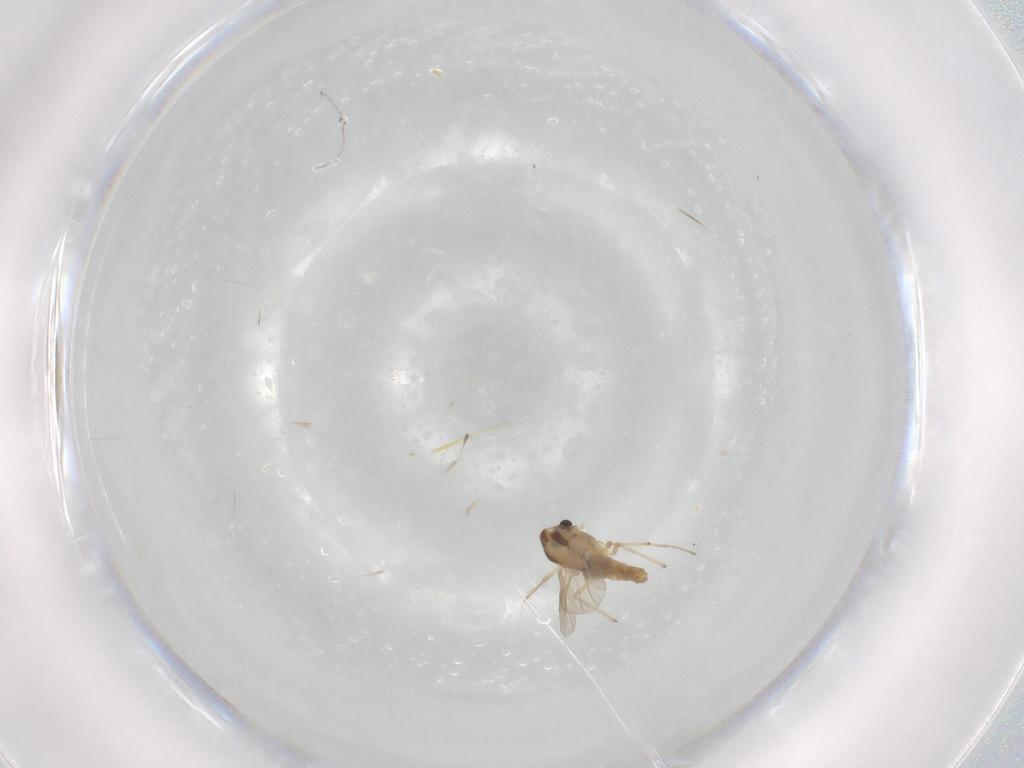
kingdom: Animalia
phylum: Arthropoda
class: Insecta
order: Diptera
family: Chironomidae
